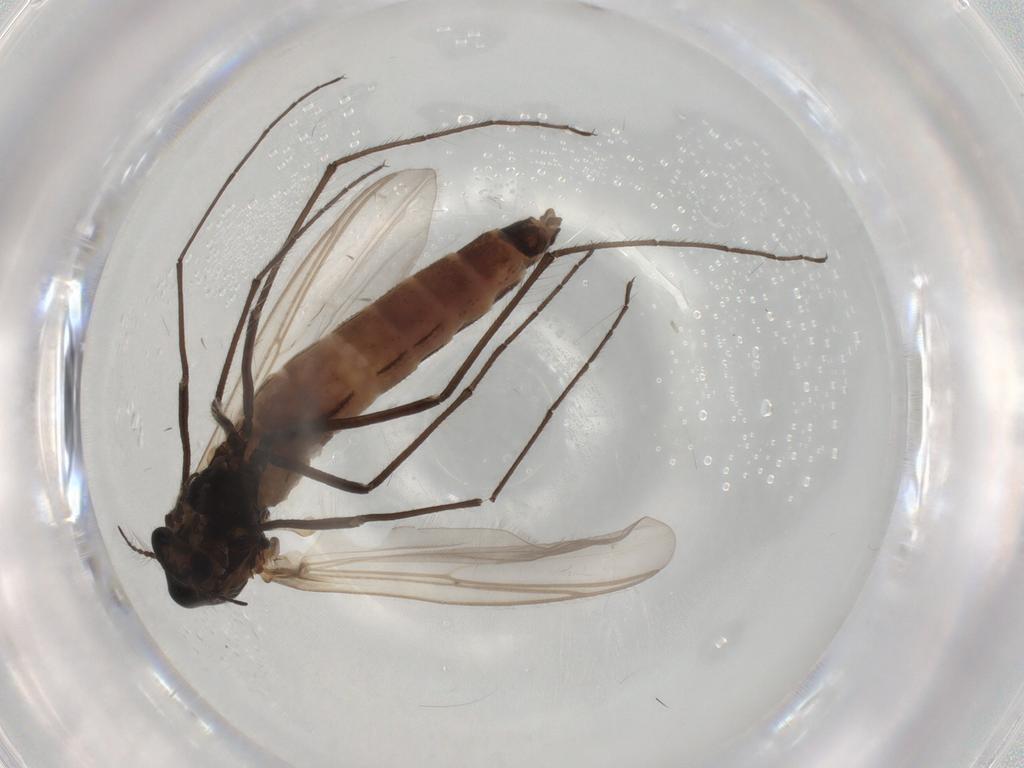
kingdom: Animalia
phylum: Arthropoda
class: Insecta
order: Diptera
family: Chironomidae
